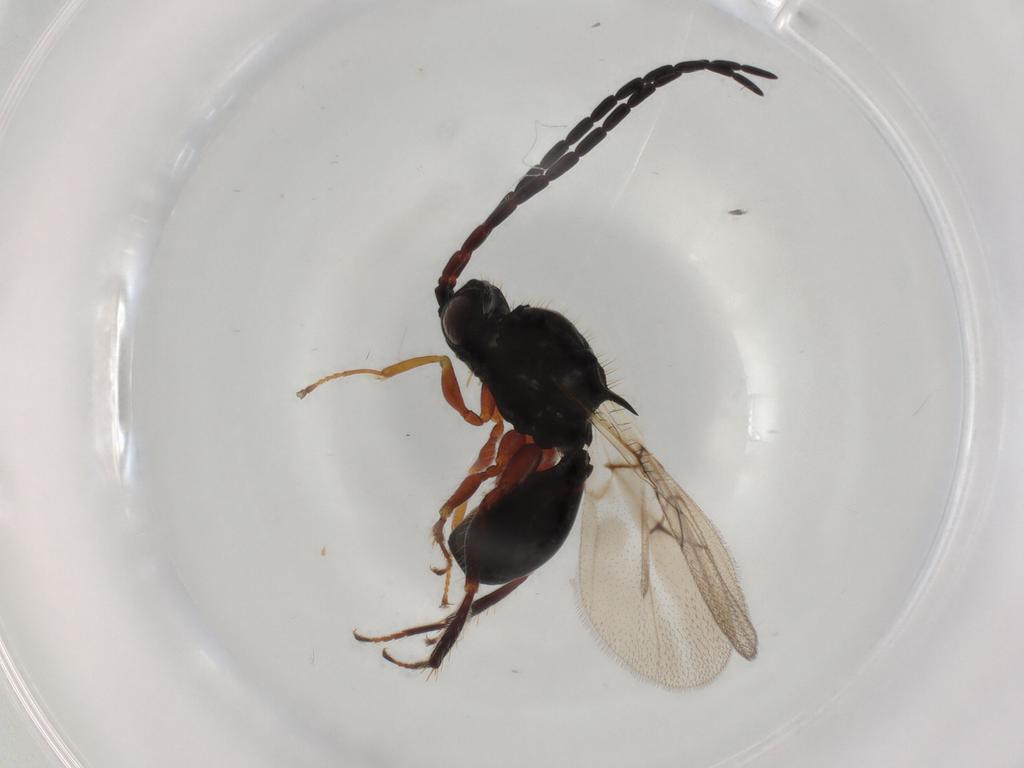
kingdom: Animalia
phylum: Arthropoda
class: Insecta
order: Hymenoptera
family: Figitidae
